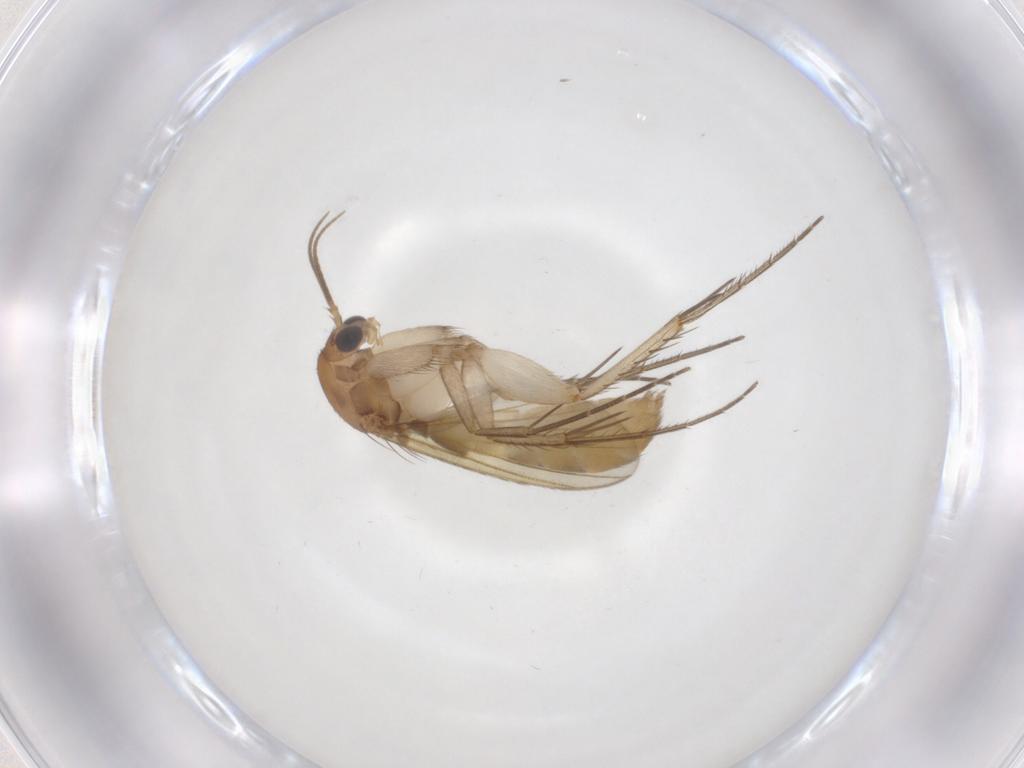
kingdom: Animalia
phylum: Arthropoda
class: Insecta
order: Diptera
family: Mycetophilidae
